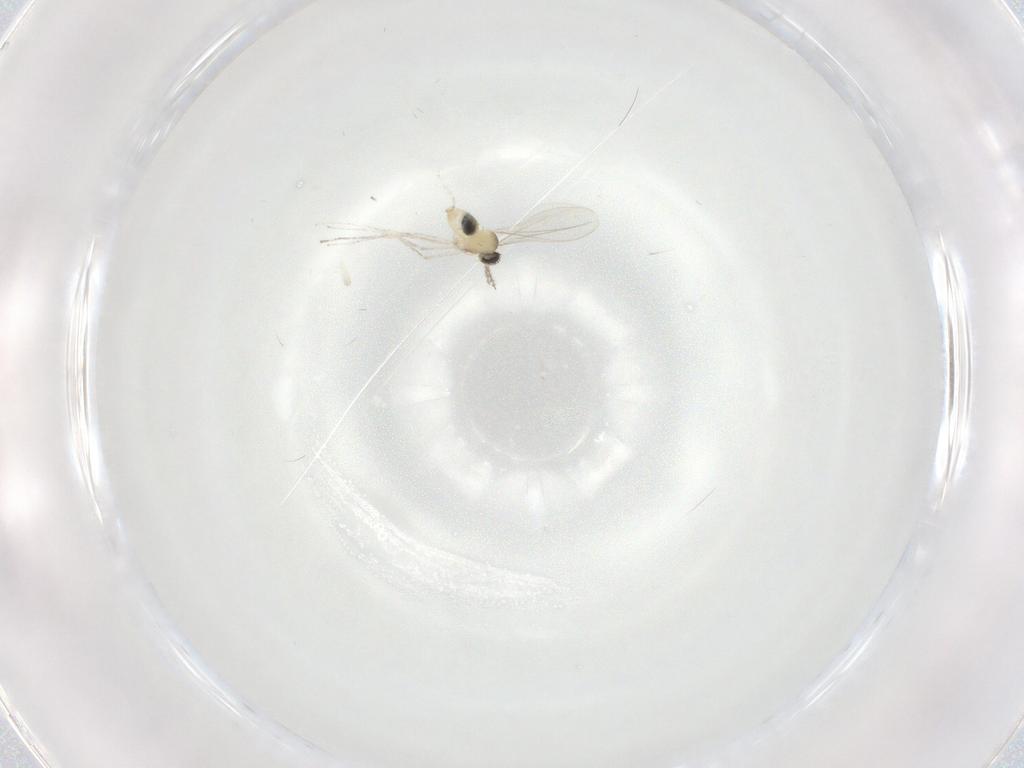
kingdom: Animalia
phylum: Arthropoda
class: Insecta
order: Diptera
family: Cecidomyiidae
